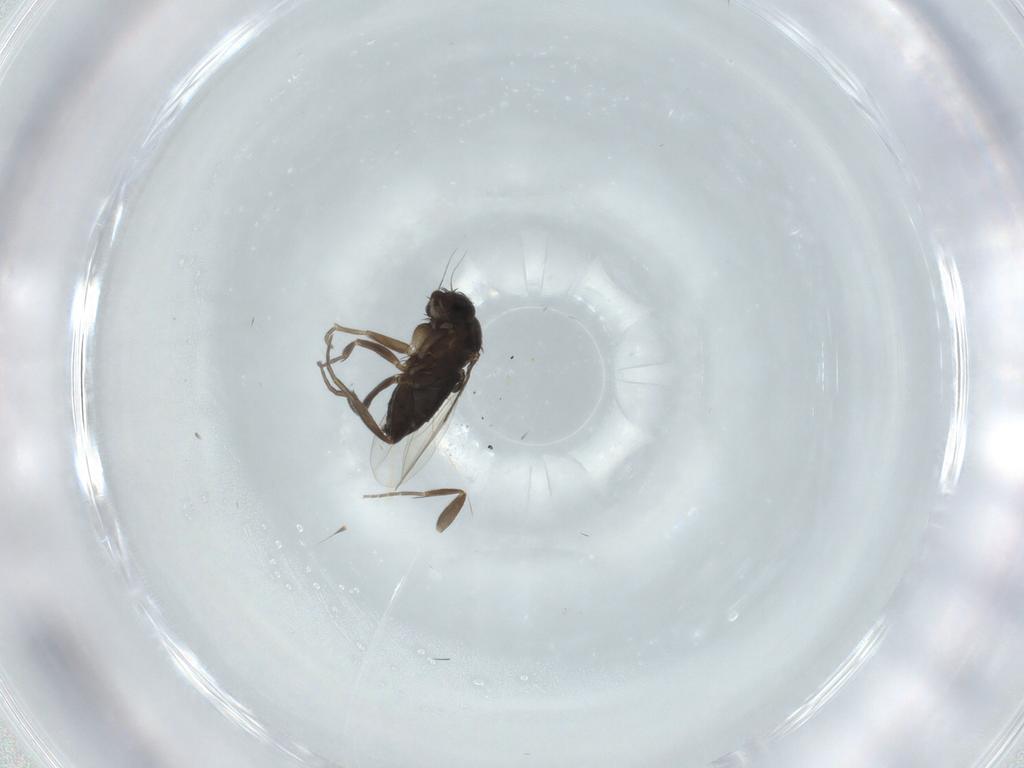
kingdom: Animalia
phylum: Arthropoda
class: Insecta
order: Diptera
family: Phoridae
